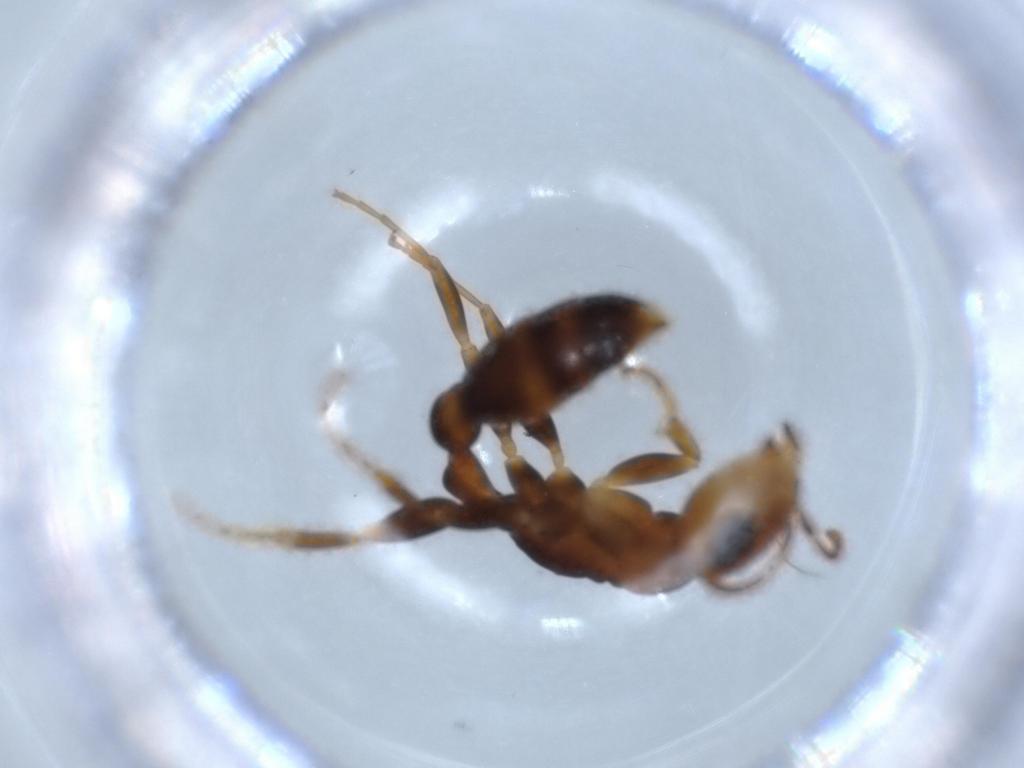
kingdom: Animalia
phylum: Arthropoda
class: Insecta
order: Hymenoptera
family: Formicidae
